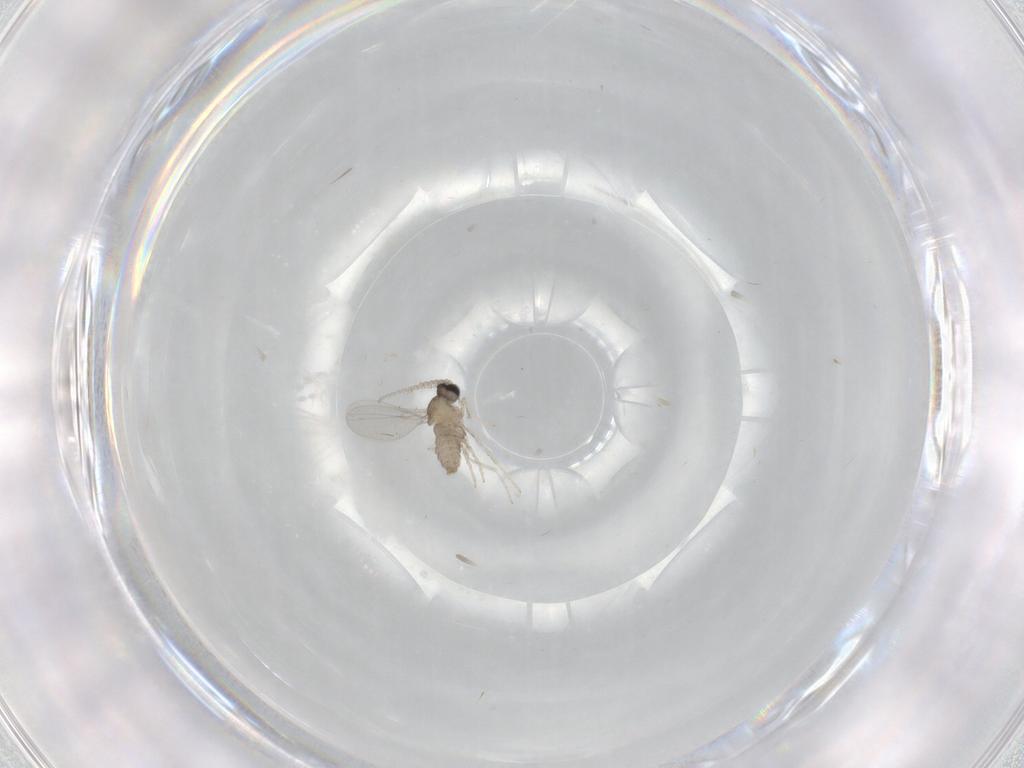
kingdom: Animalia
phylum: Arthropoda
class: Insecta
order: Diptera
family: Cecidomyiidae
